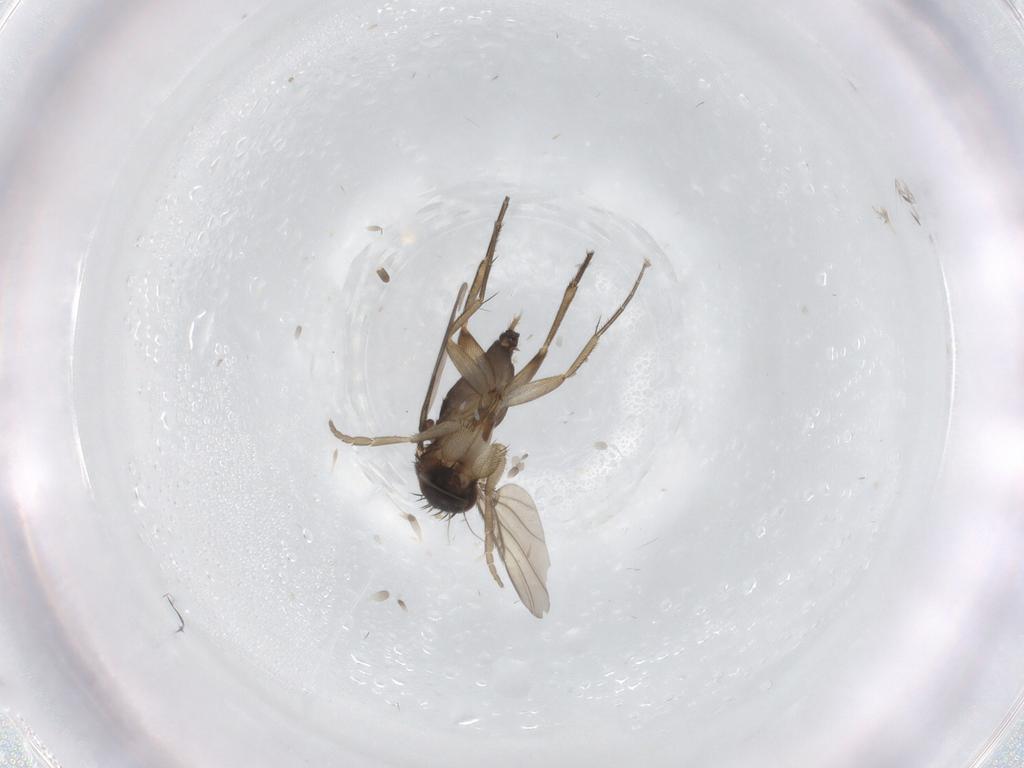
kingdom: Animalia
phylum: Arthropoda
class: Insecta
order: Diptera
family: Phoridae
